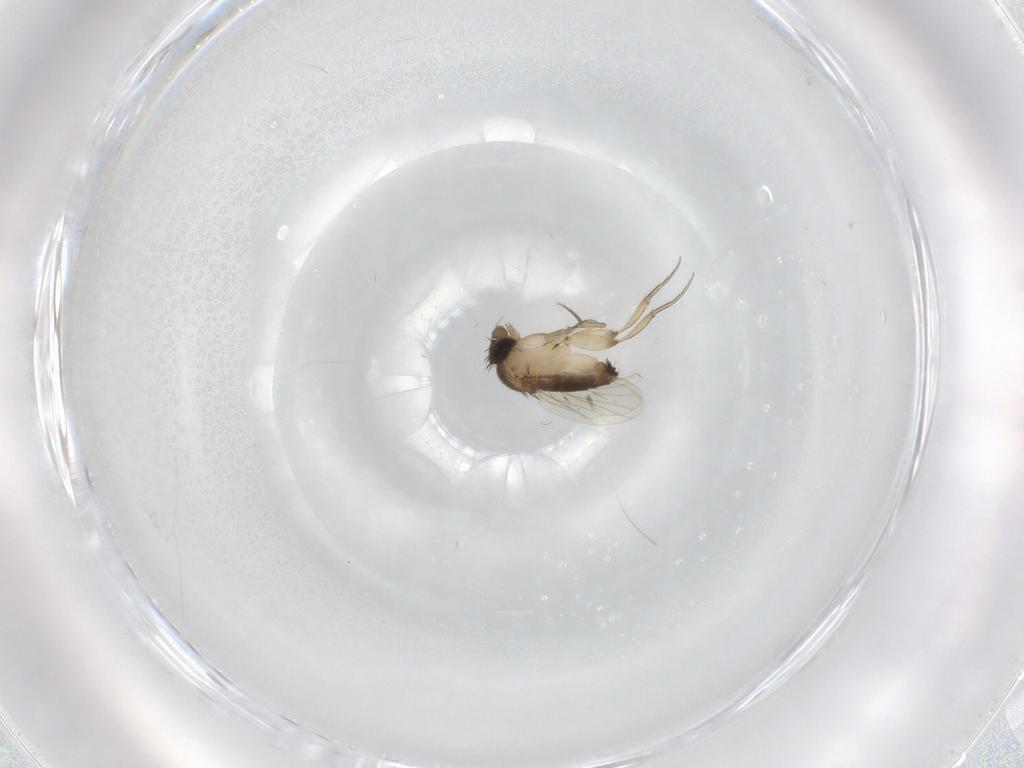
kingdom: Animalia
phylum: Arthropoda
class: Insecta
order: Diptera
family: Phoridae
